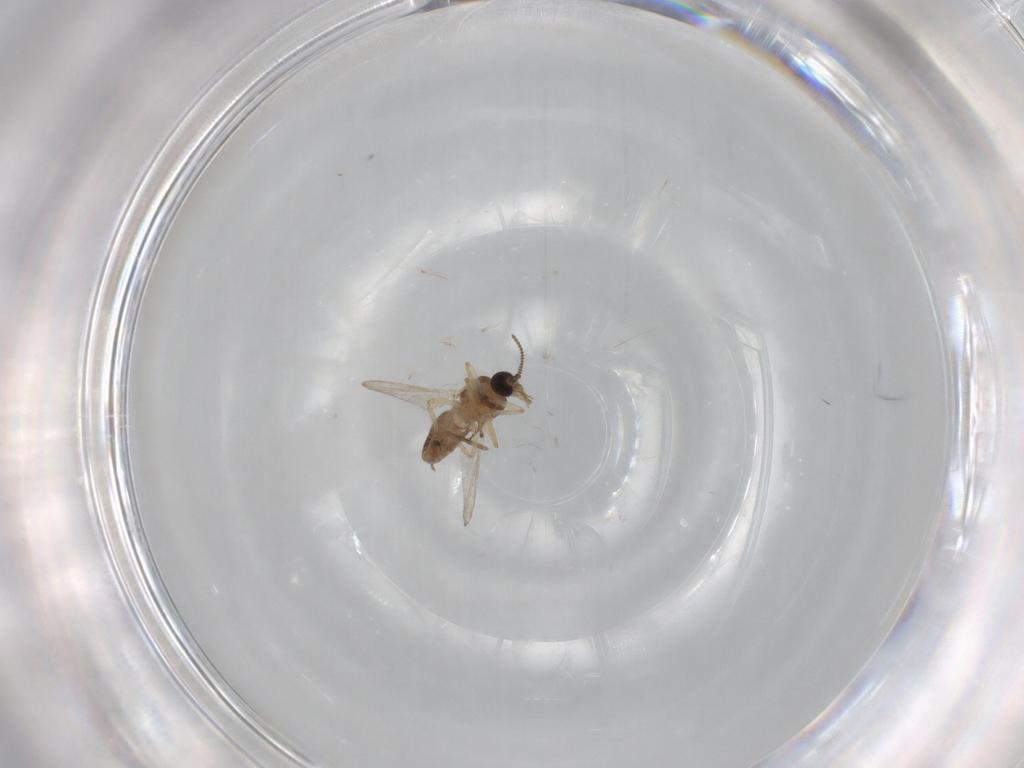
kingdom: Animalia
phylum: Arthropoda
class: Insecta
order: Diptera
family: Ceratopogonidae
